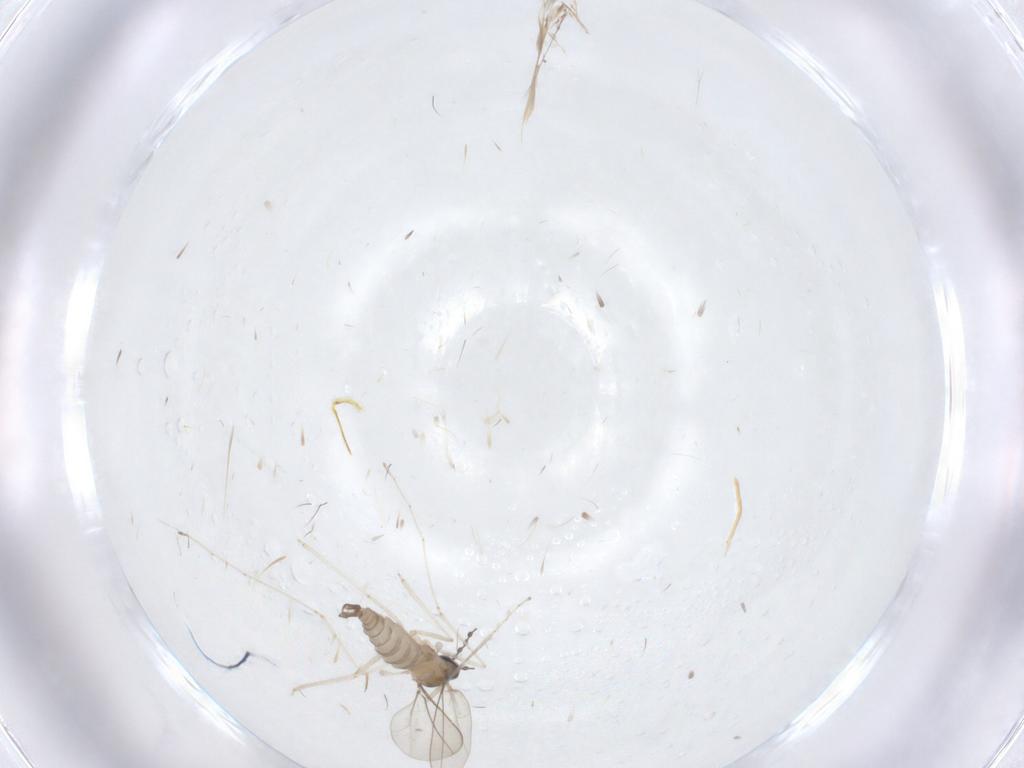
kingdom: Animalia
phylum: Arthropoda
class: Insecta
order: Diptera
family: Cecidomyiidae
